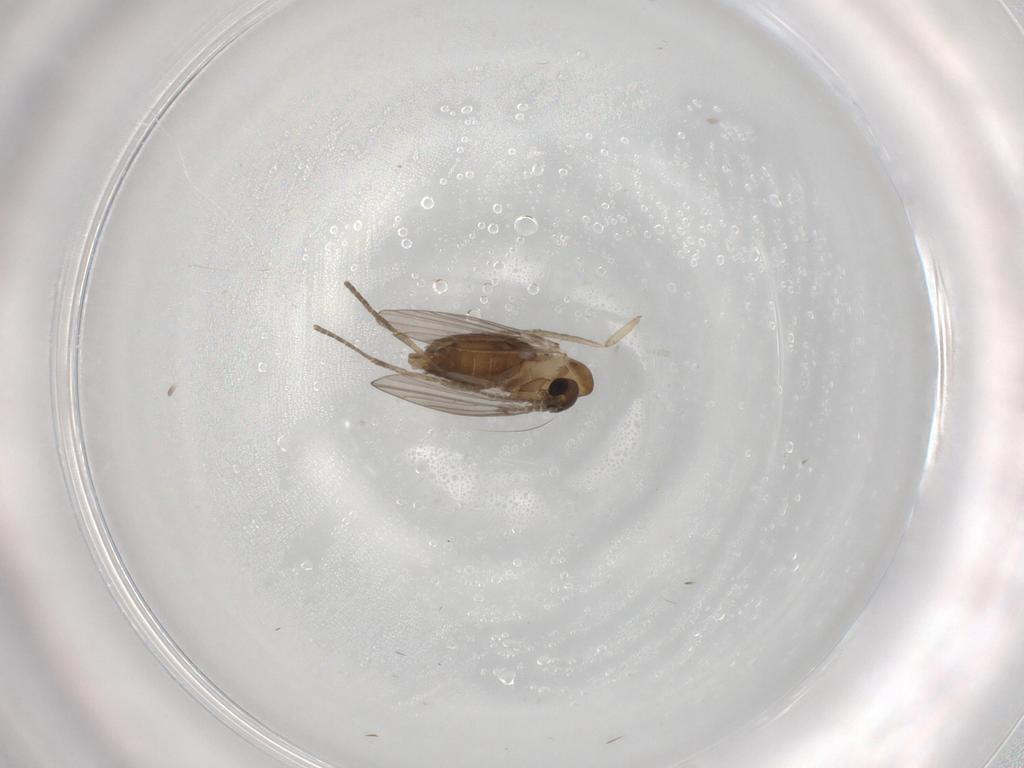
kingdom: Animalia
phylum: Arthropoda
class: Insecta
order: Diptera
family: Psychodidae
